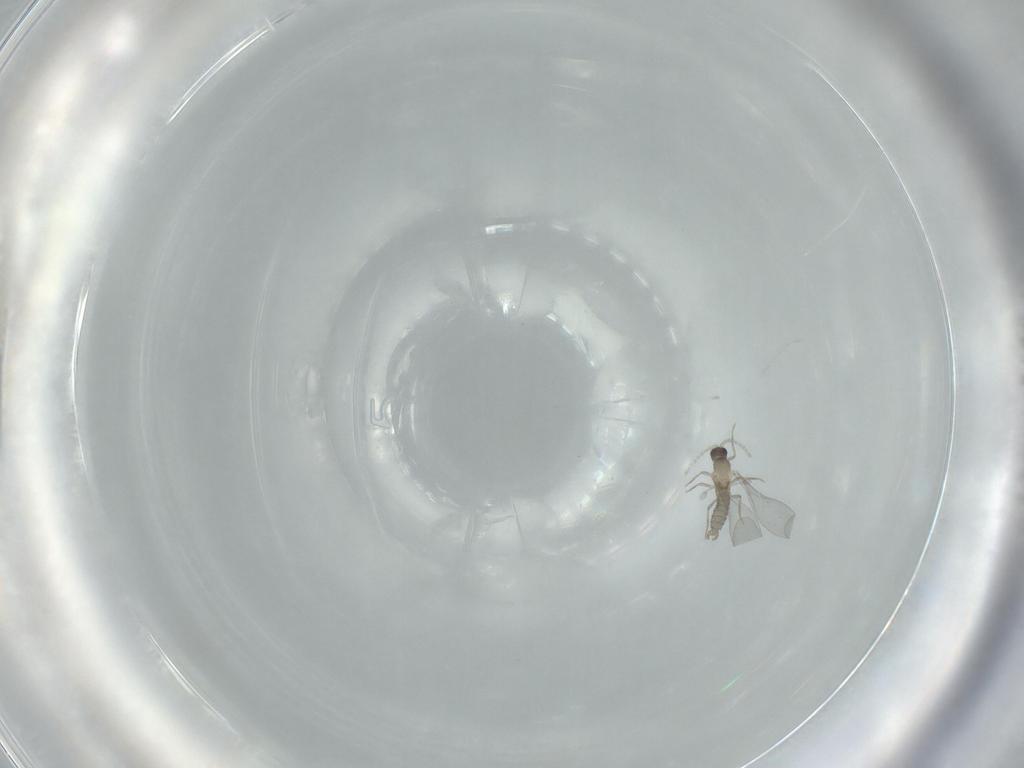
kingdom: Animalia
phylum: Arthropoda
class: Insecta
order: Diptera
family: Cecidomyiidae
